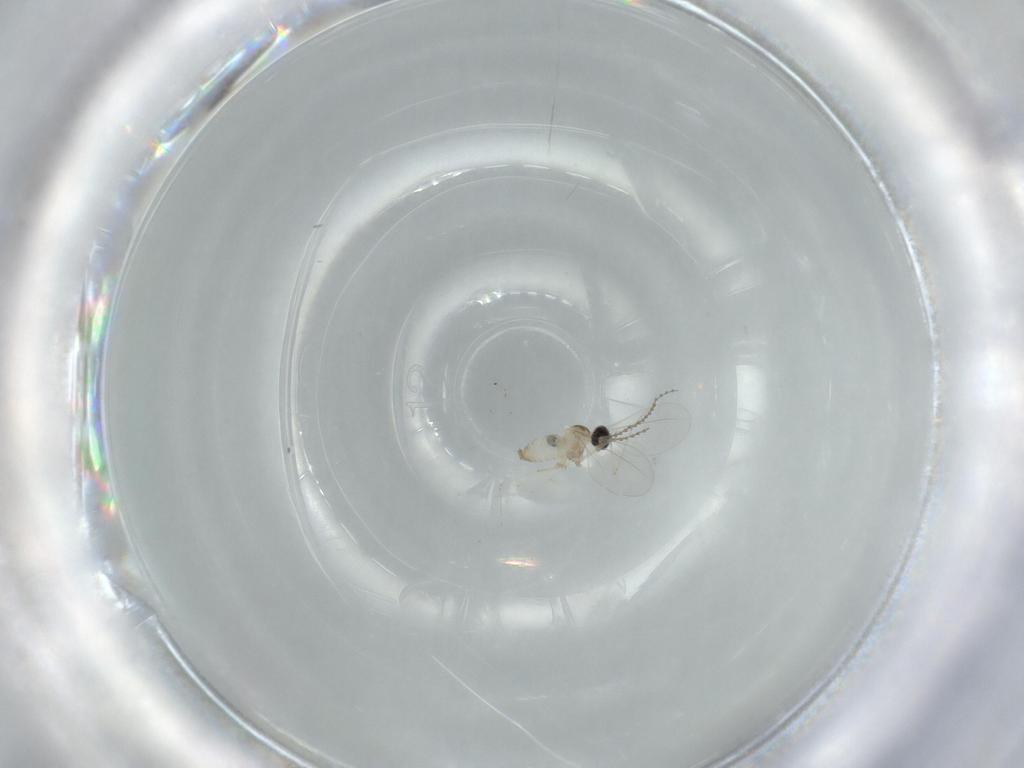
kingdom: Animalia
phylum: Arthropoda
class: Insecta
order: Diptera
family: Cecidomyiidae
